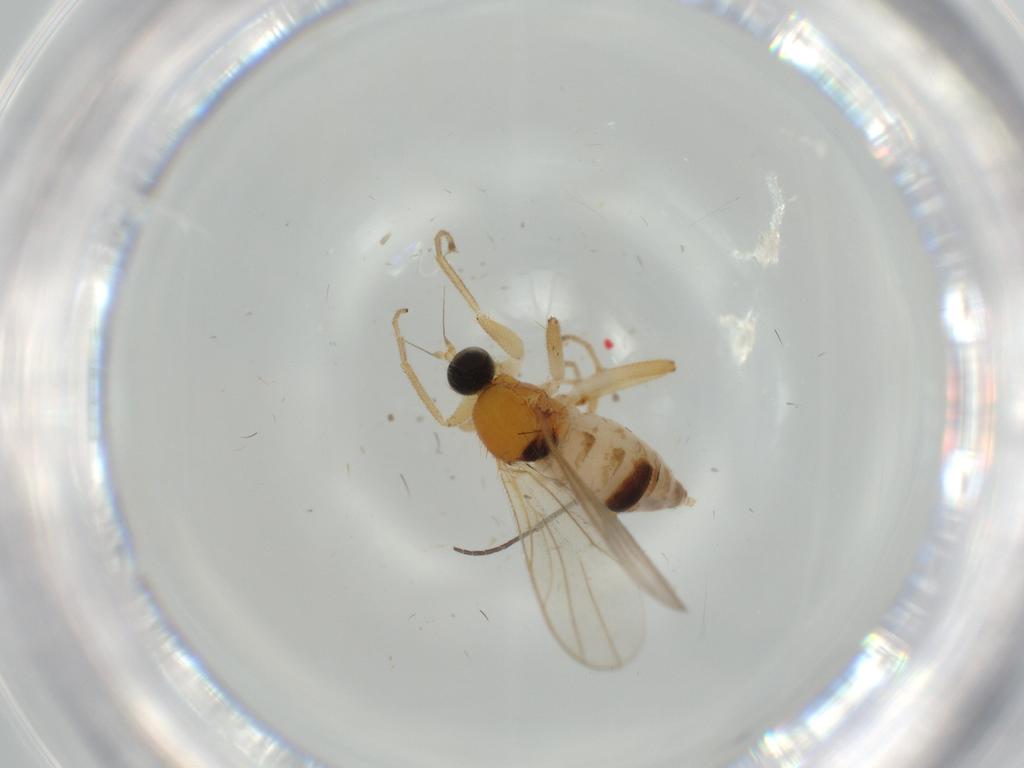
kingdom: Animalia
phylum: Arthropoda
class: Insecta
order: Diptera
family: Hybotidae
